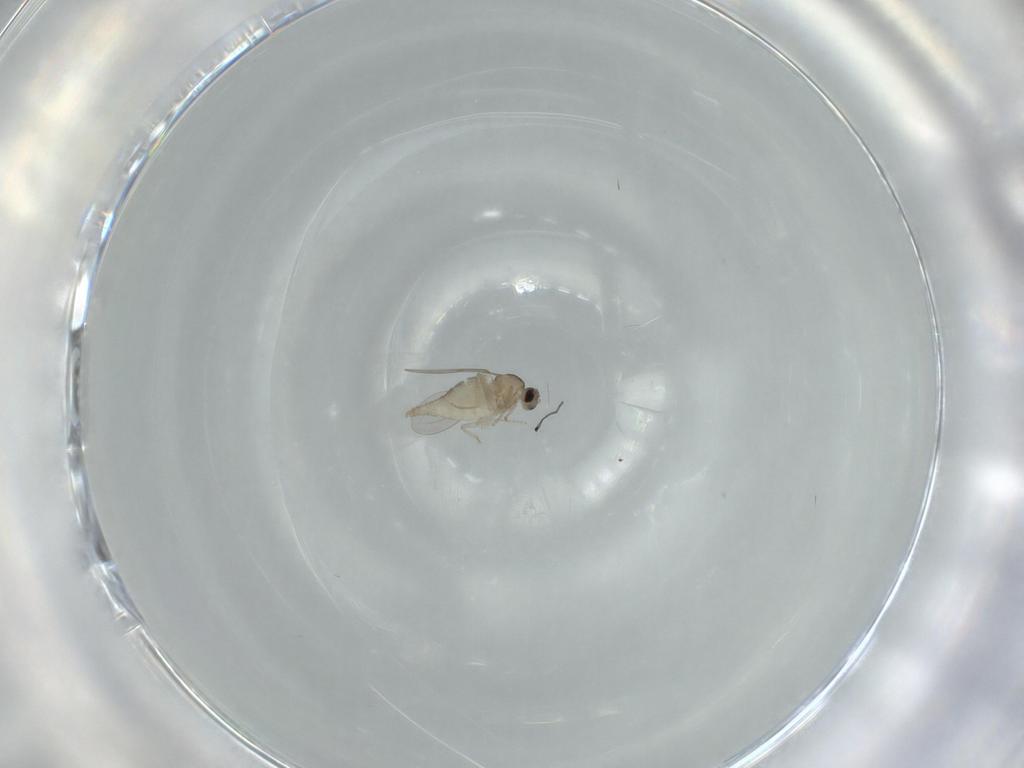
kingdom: Animalia
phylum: Arthropoda
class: Insecta
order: Diptera
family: Cecidomyiidae
